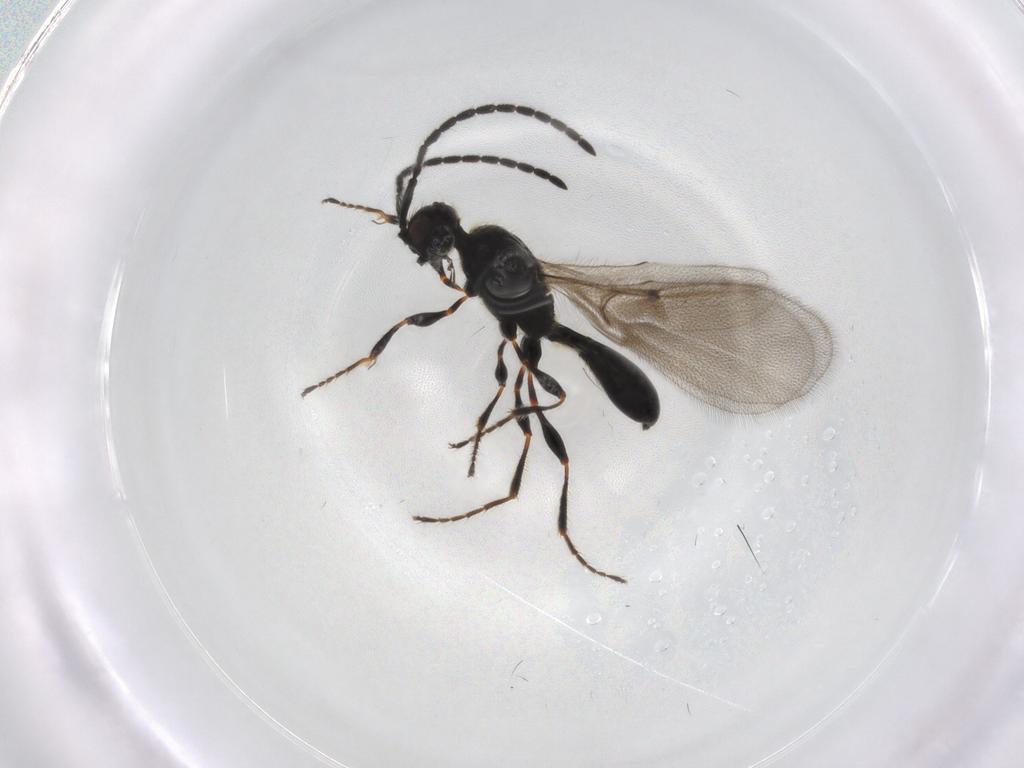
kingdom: Animalia
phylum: Arthropoda
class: Insecta
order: Hymenoptera
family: Diapriidae
